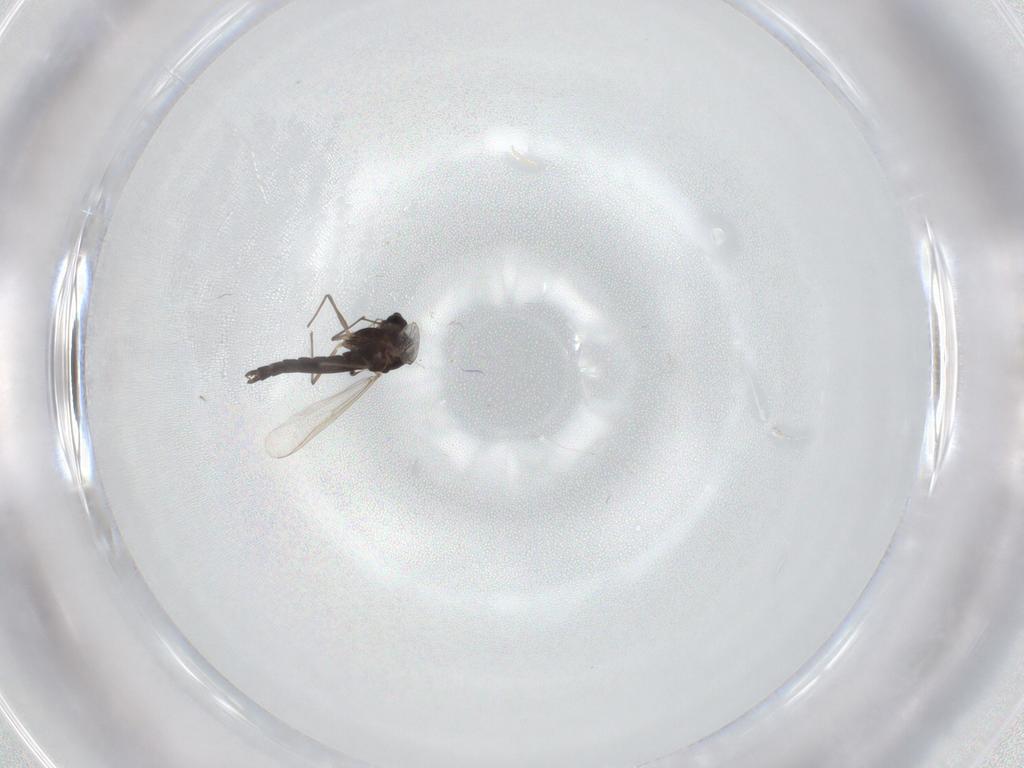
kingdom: Animalia
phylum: Arthropoda
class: Insecta
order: Diptera
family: Chironomidae
